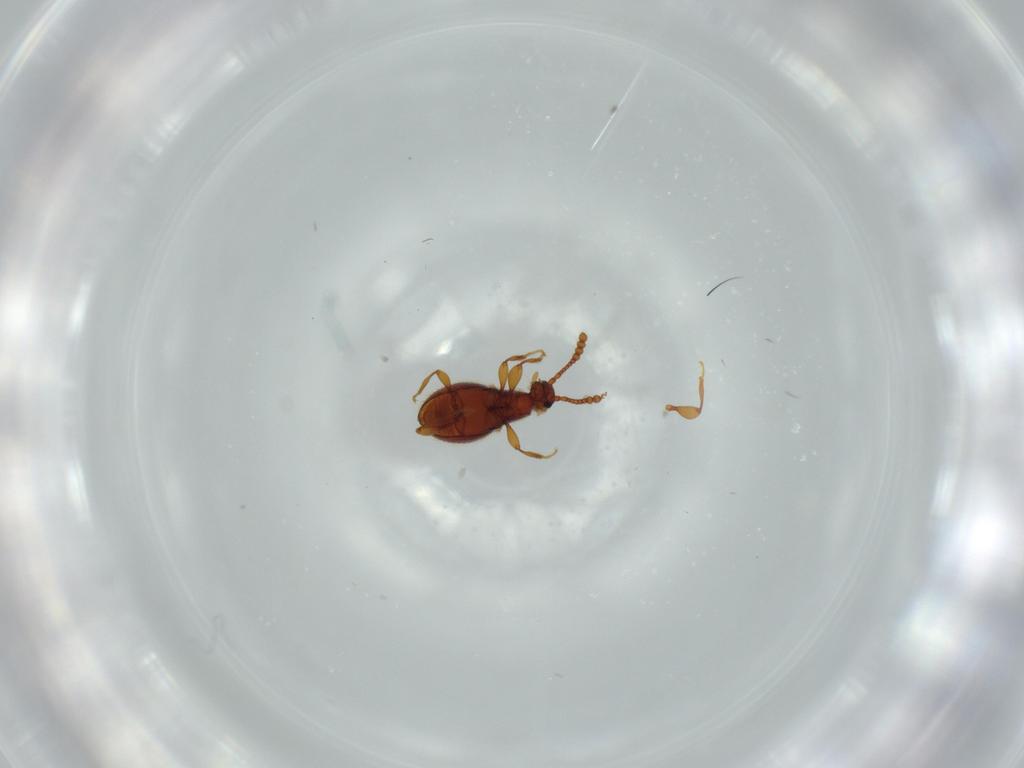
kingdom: Animalia
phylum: Arthropoda
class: Insecta
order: Coleoptera
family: Staphylinidae
